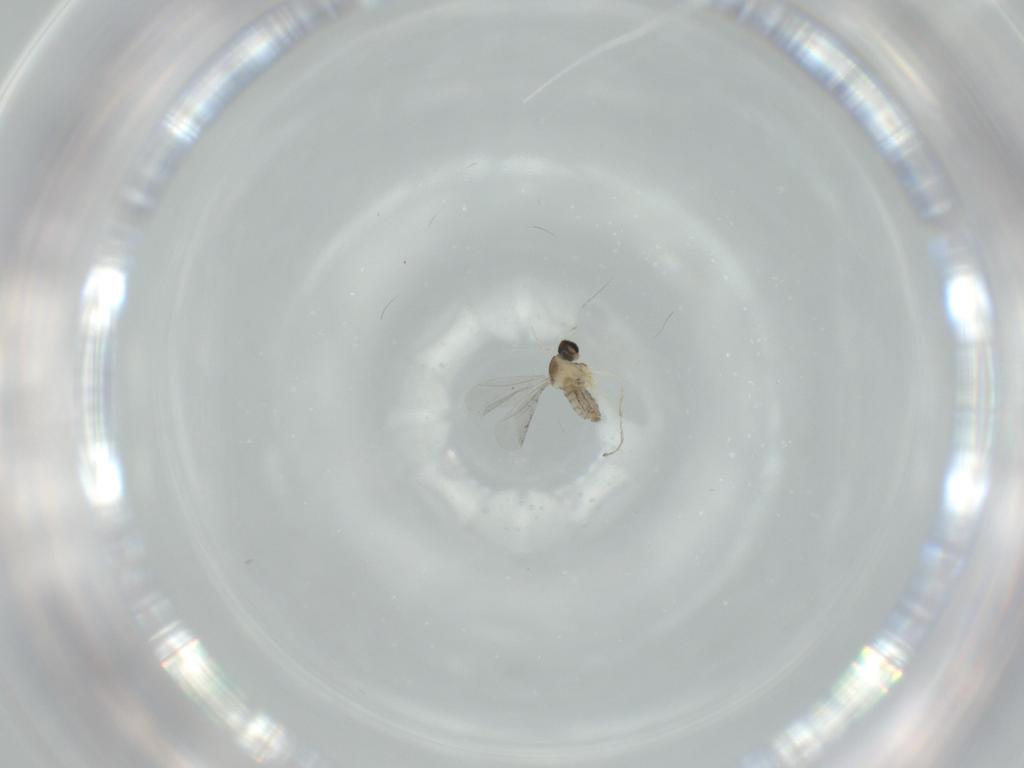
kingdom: Animalia
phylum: Arthropoda
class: Insecta
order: Diptera
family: Cecidomyiidae
